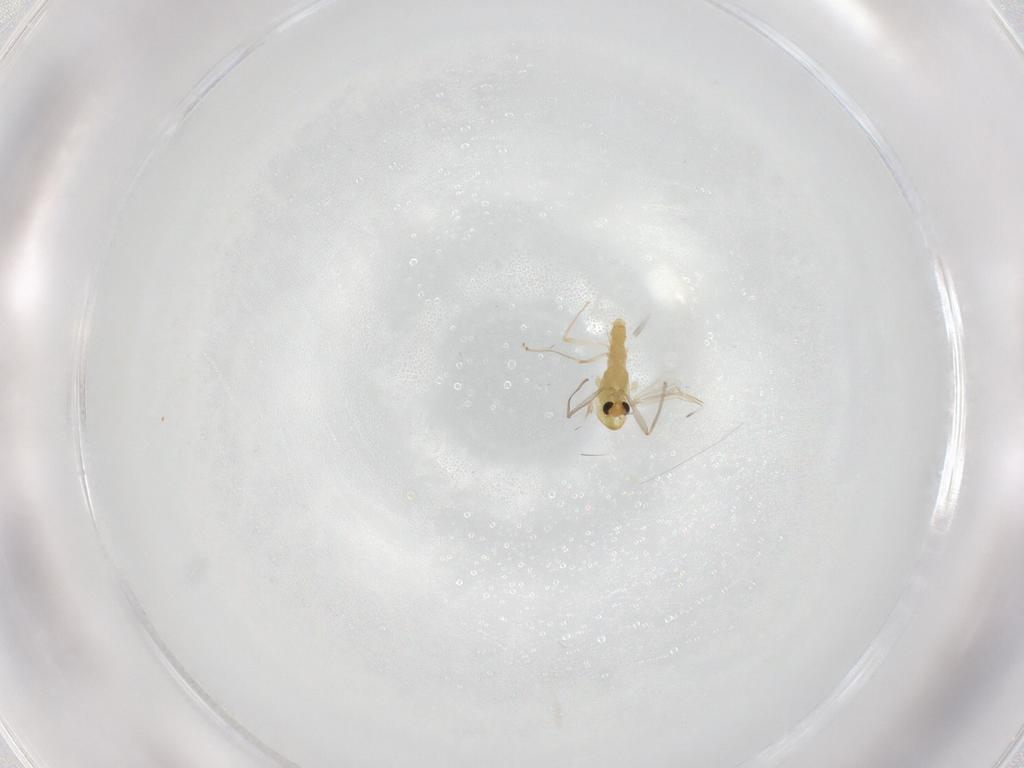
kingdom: Animalia
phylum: Arthropoda
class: Insecta
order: Diptera
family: Chironomidae
